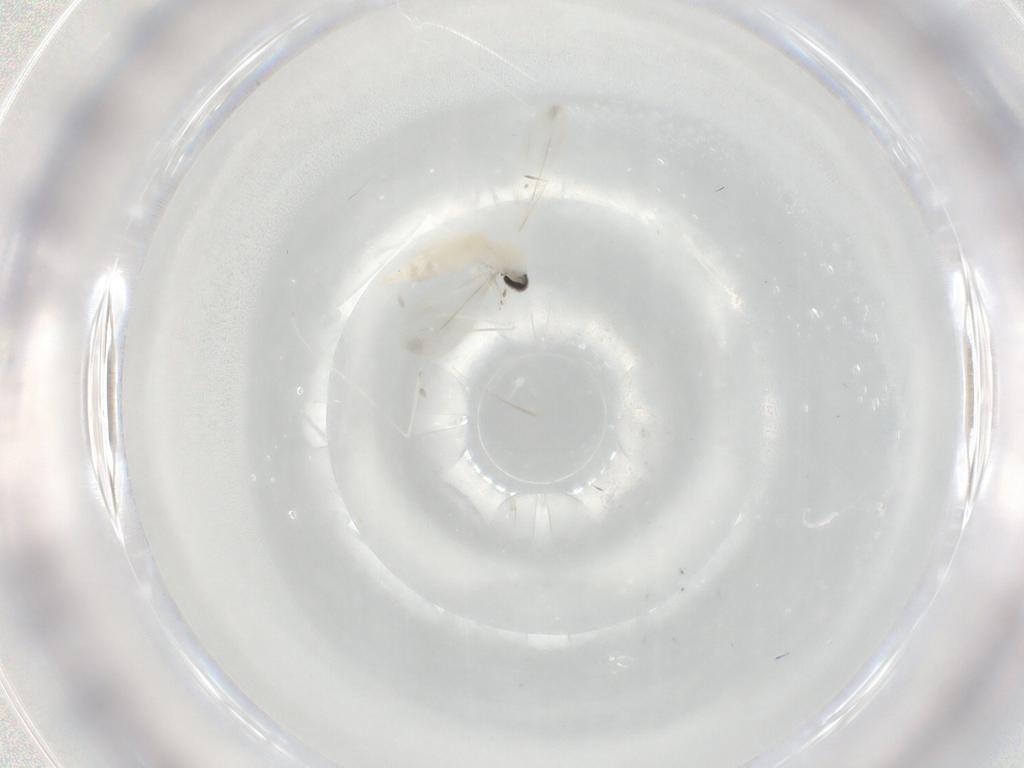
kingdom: Animalia
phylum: Arthropoda
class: Insecta
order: Diptera
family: Cecidomyiidae
